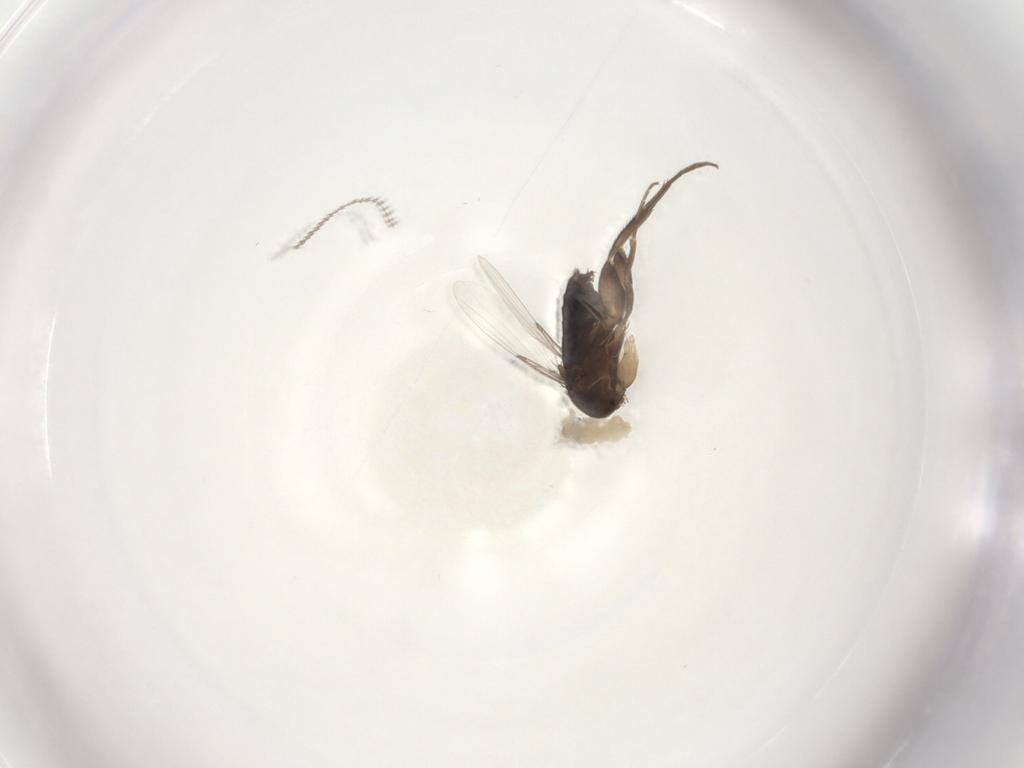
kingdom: Animalia
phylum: Arthropoda
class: Insecta
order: Diptera
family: Phoridae
